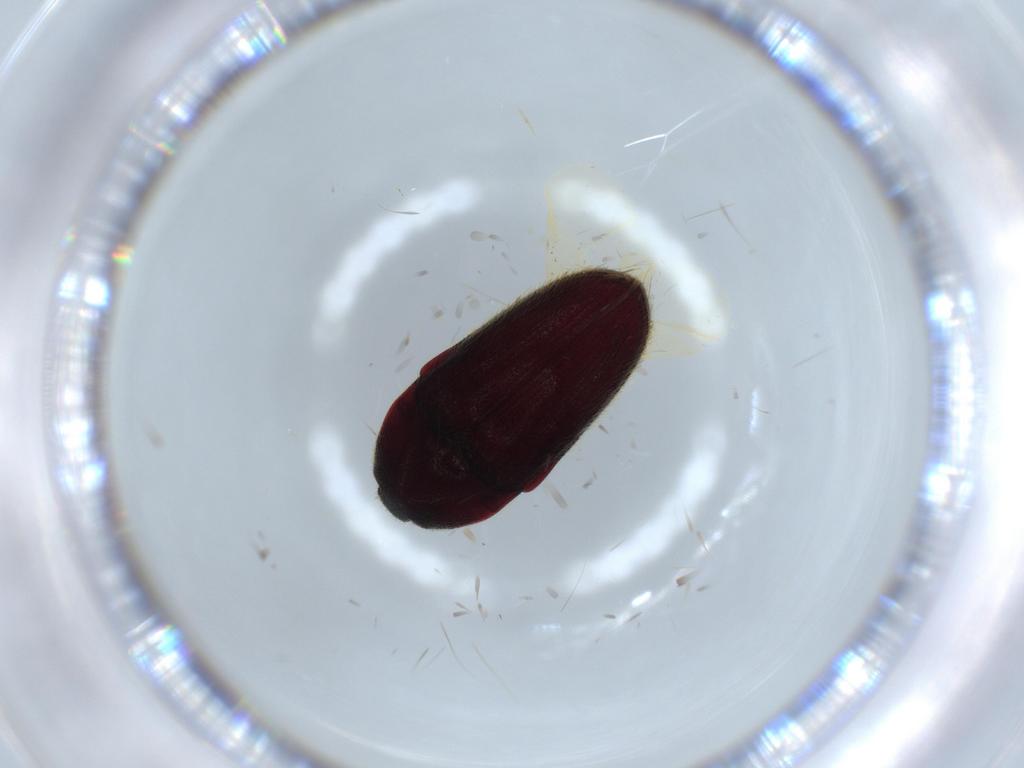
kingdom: Animalia
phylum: Arthropoda
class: Insecta
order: Coleoptera
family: Throscidae
